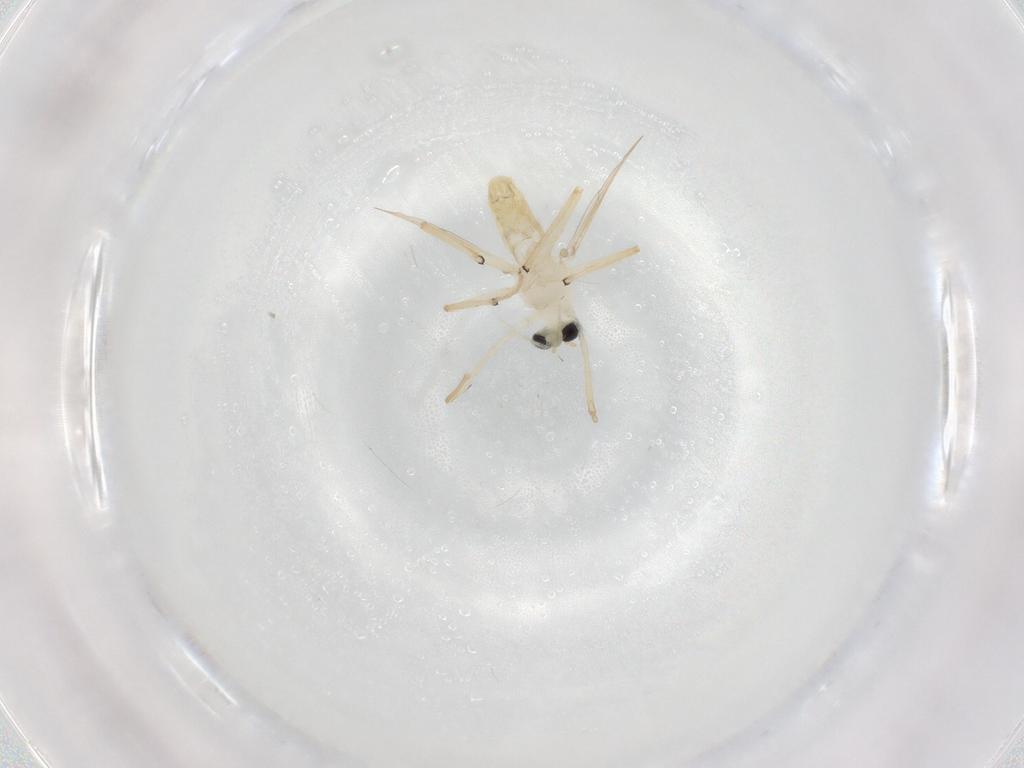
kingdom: Animalia
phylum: Arthropoda
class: Insecta
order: Diptera
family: Chironomidae
